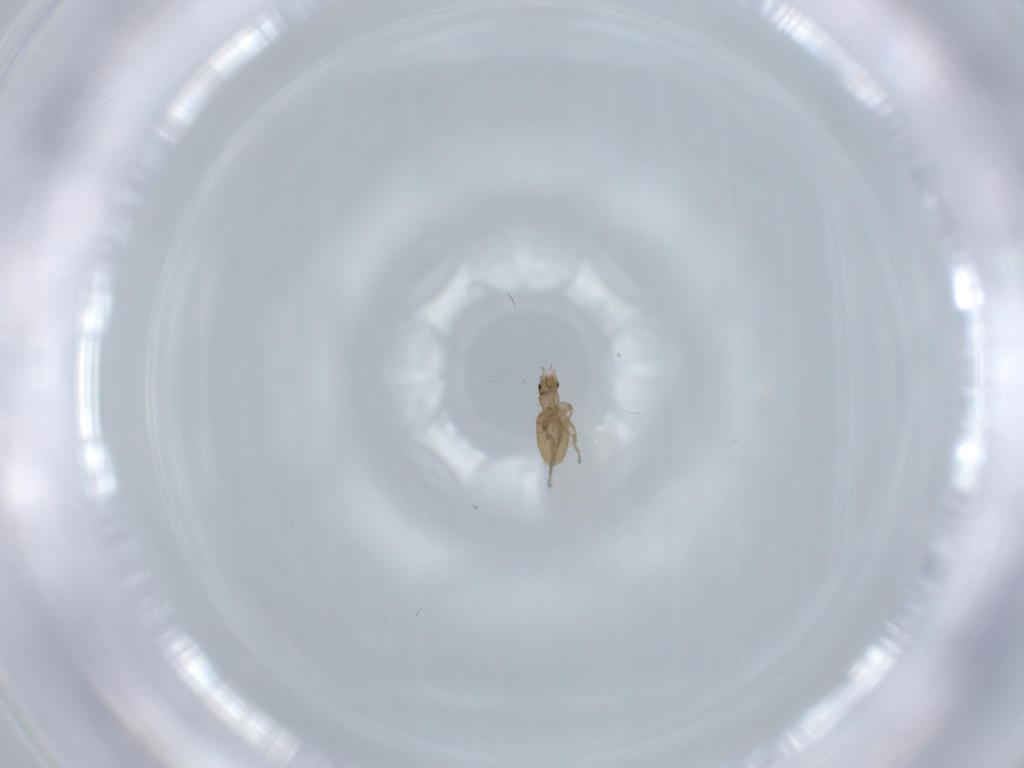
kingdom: Animalia
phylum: Arthropoda
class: Insecta
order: Diptera
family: Phoridae
